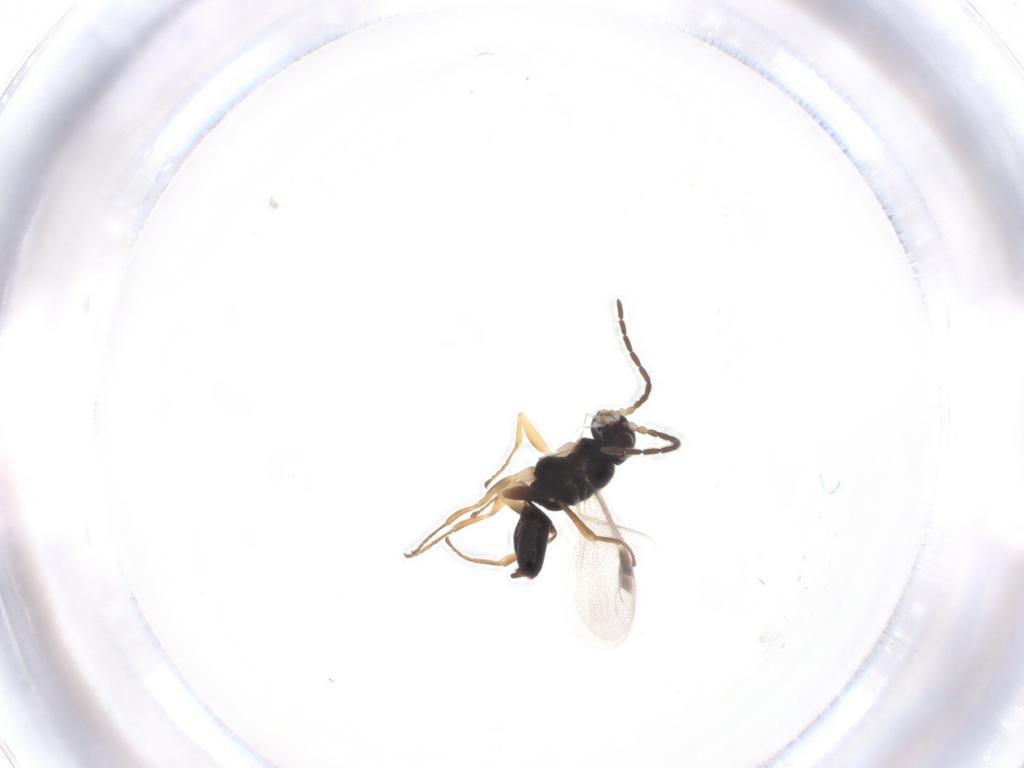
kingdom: Animalia
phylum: Arthropoda
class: Insecta
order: Hymenoptera
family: Dryinidae
